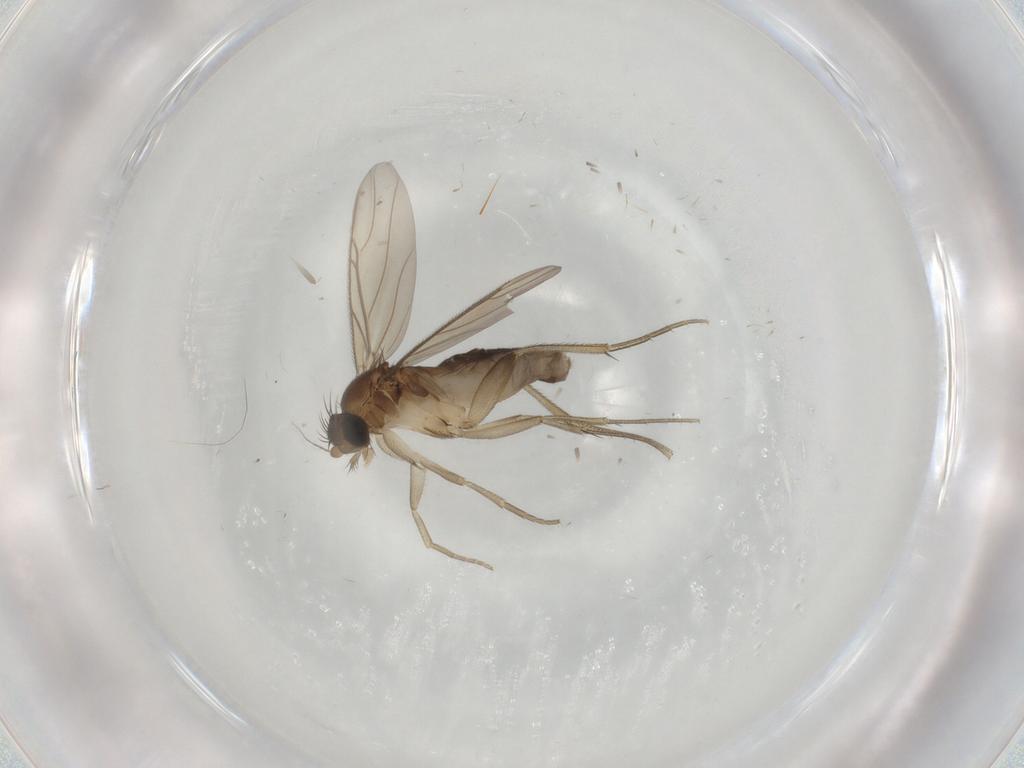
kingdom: Animalia
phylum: Arthropoda
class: Insecta
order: Diptera
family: Phoridae
